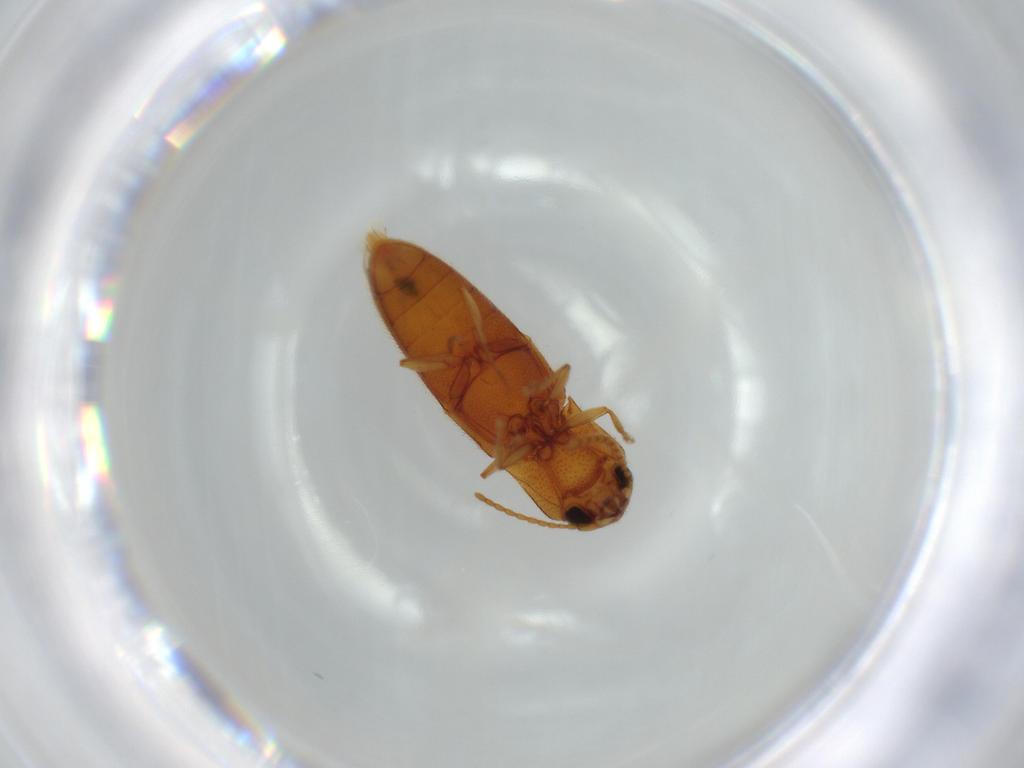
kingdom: Animalia
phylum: Arthropoda
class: Insecta
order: Coleoptera
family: Elateridae
